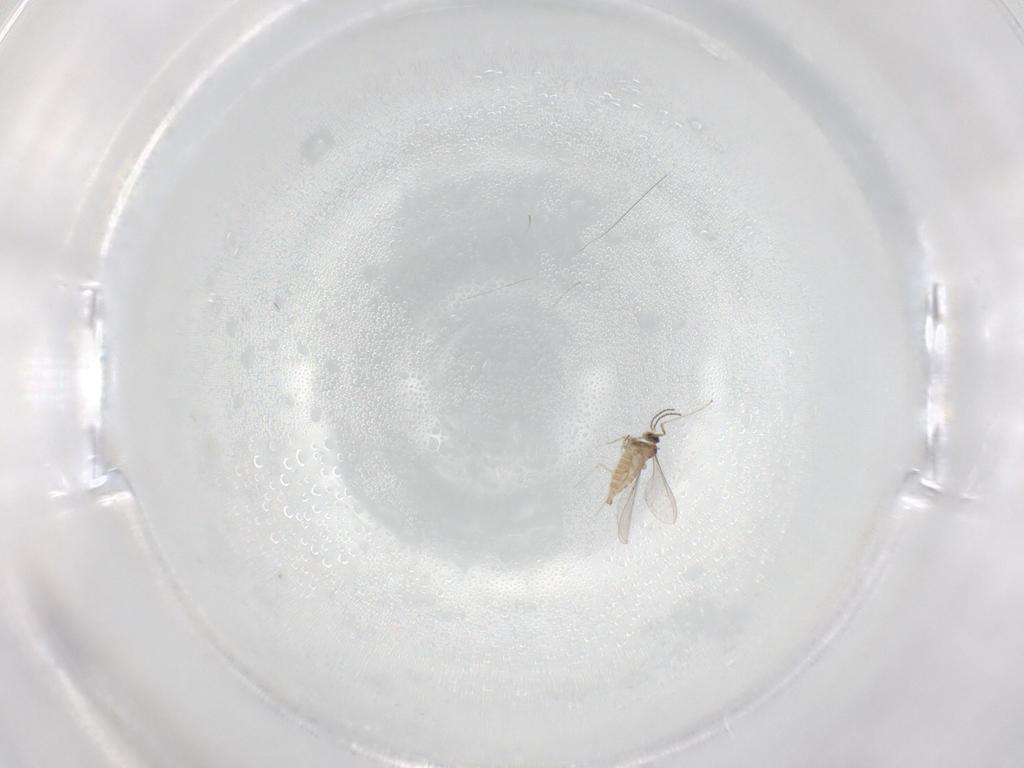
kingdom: Animalia
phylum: Arthropoda
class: Insecta
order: Diptera
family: Cecidomyiidae
